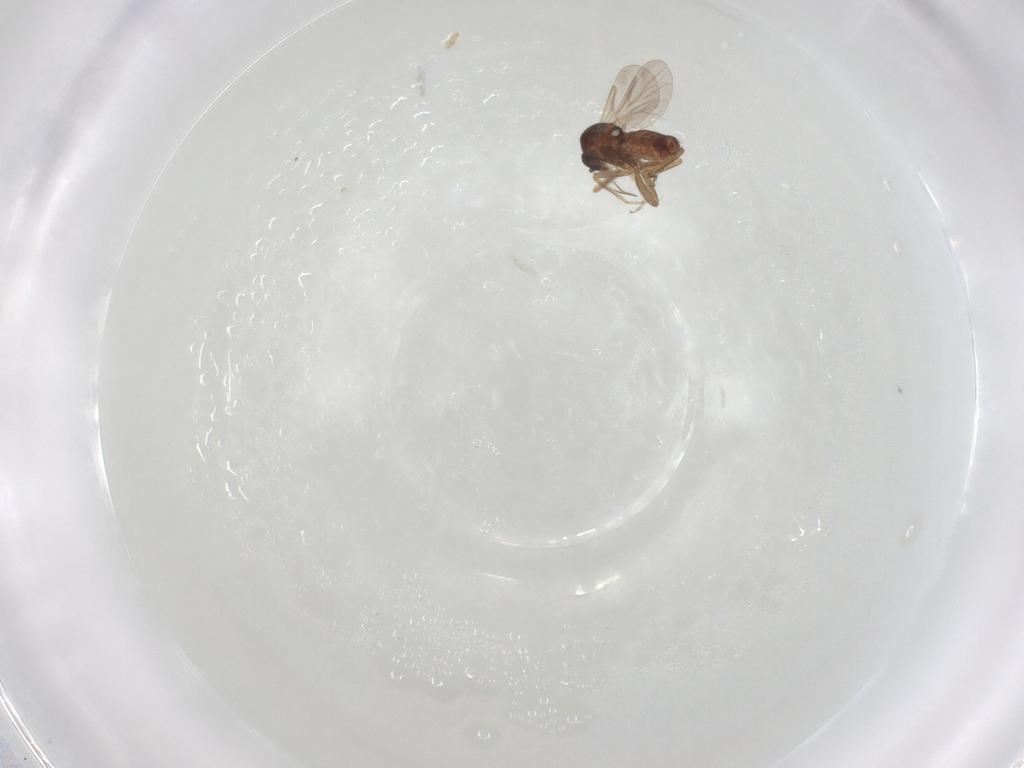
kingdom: Animalia
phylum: Arthropoda
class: Insecta
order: Diptera
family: Ceratopogonidae
